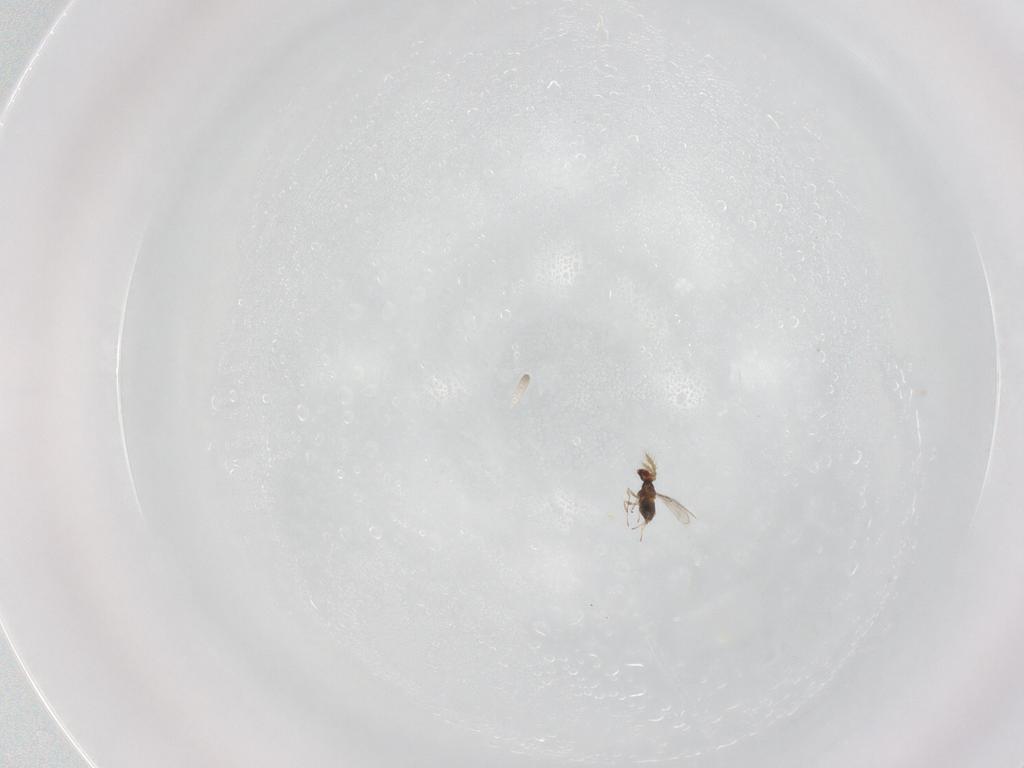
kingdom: Animalia
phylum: Arthropoda
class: Insecta
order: Hymenoptera
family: Trichogrammatidae
